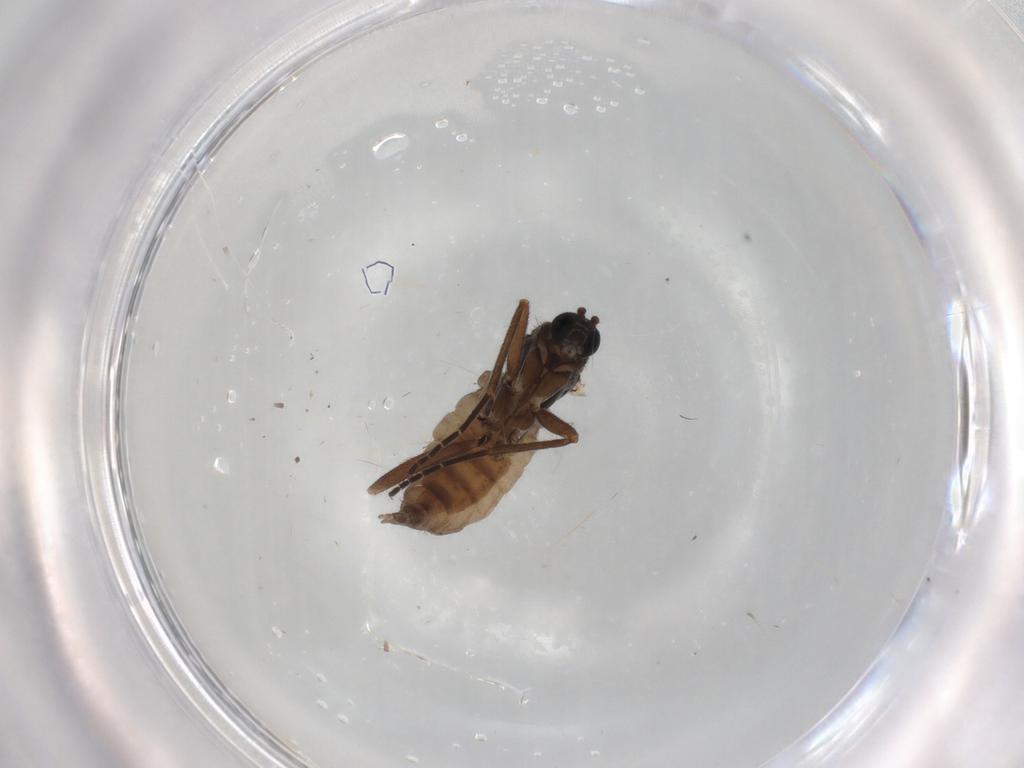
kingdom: Animalia
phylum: Arthropoda
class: Insecta
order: Diptera
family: Sciaridae
